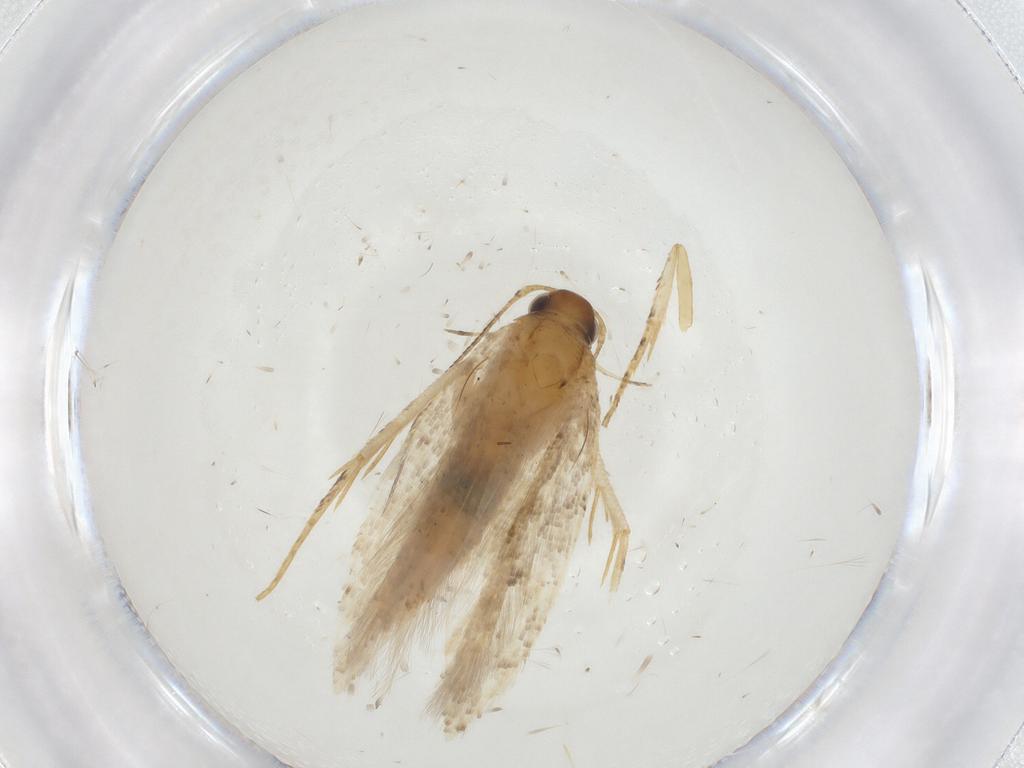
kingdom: Animalia
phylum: Arthropoda
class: Insecta
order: Lepidoptera
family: Gelechiidae
